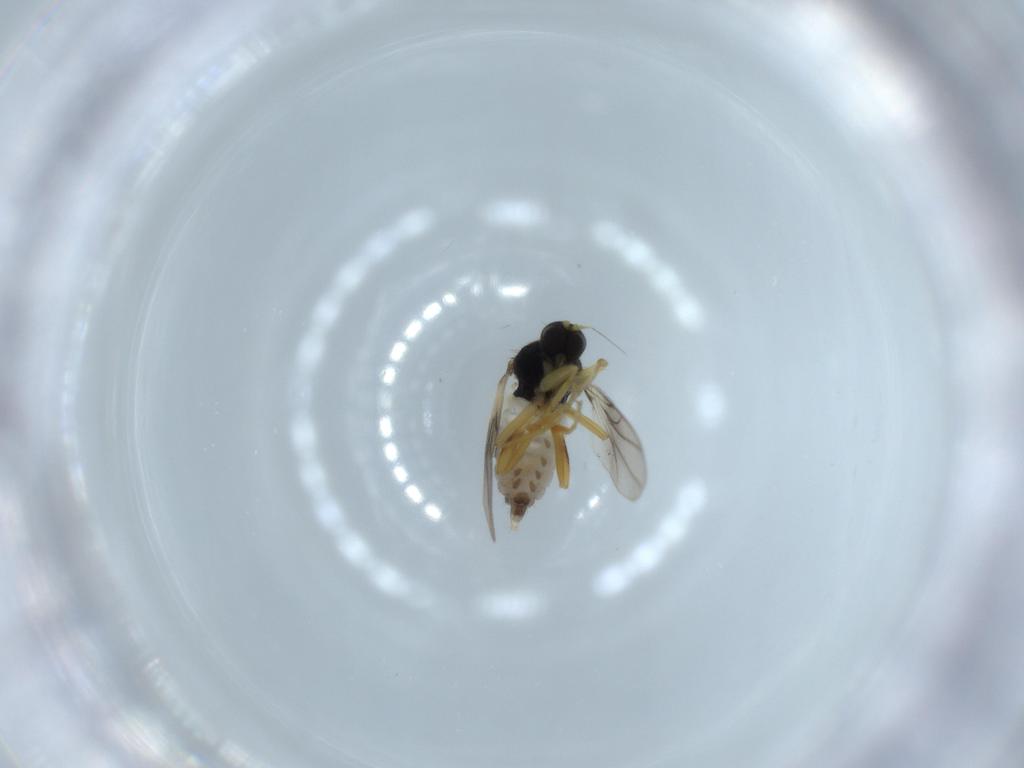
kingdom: Animalia
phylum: Arthropoda
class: Insecta
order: Diptera
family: Hybotidae
